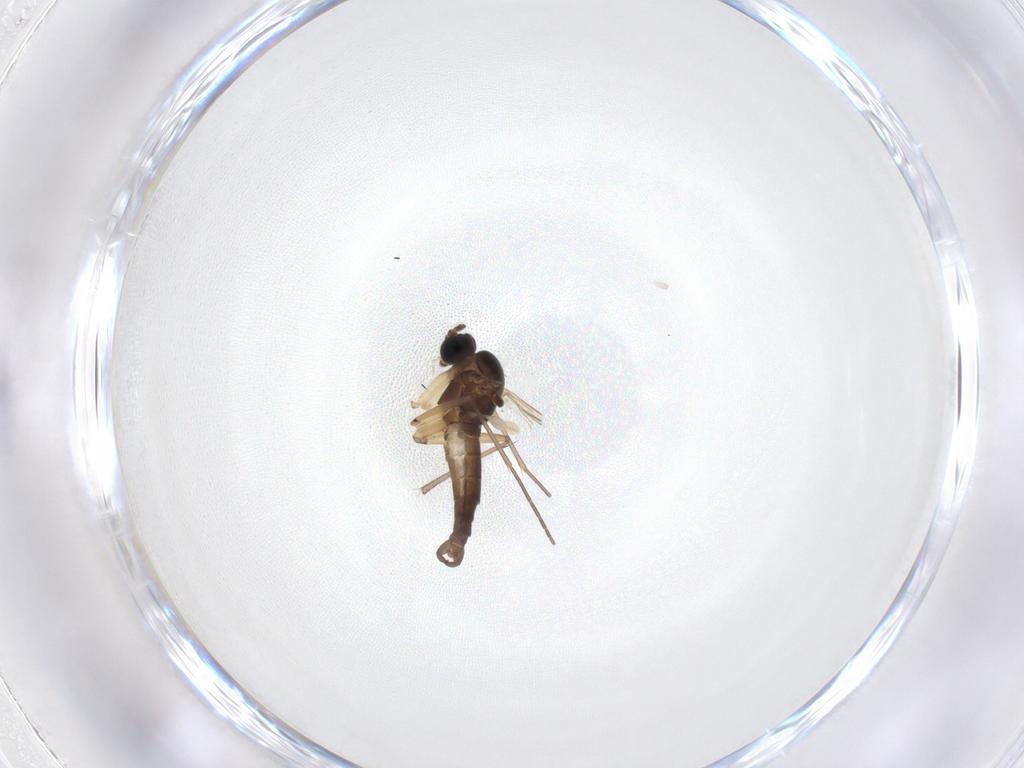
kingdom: Animalia
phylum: Arthropoda
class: Insecta
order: Diptera
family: Sciaridae
